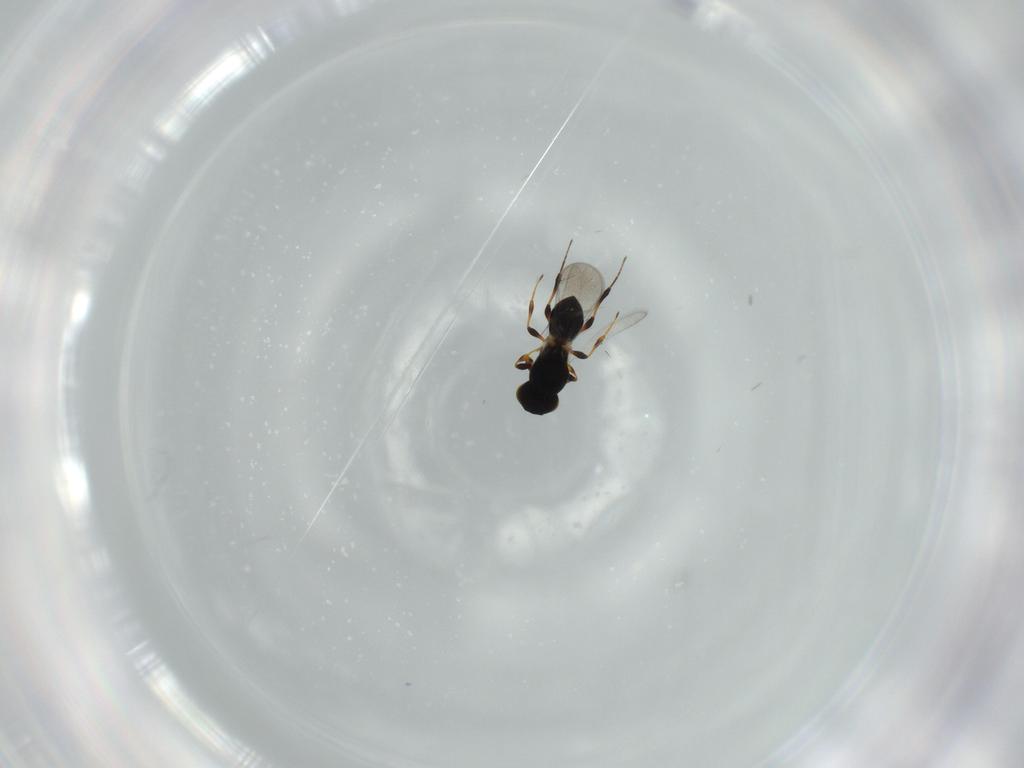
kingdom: Animalia
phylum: Arthropoda
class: Insecta
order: Hymenoptera
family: Platygastridae
